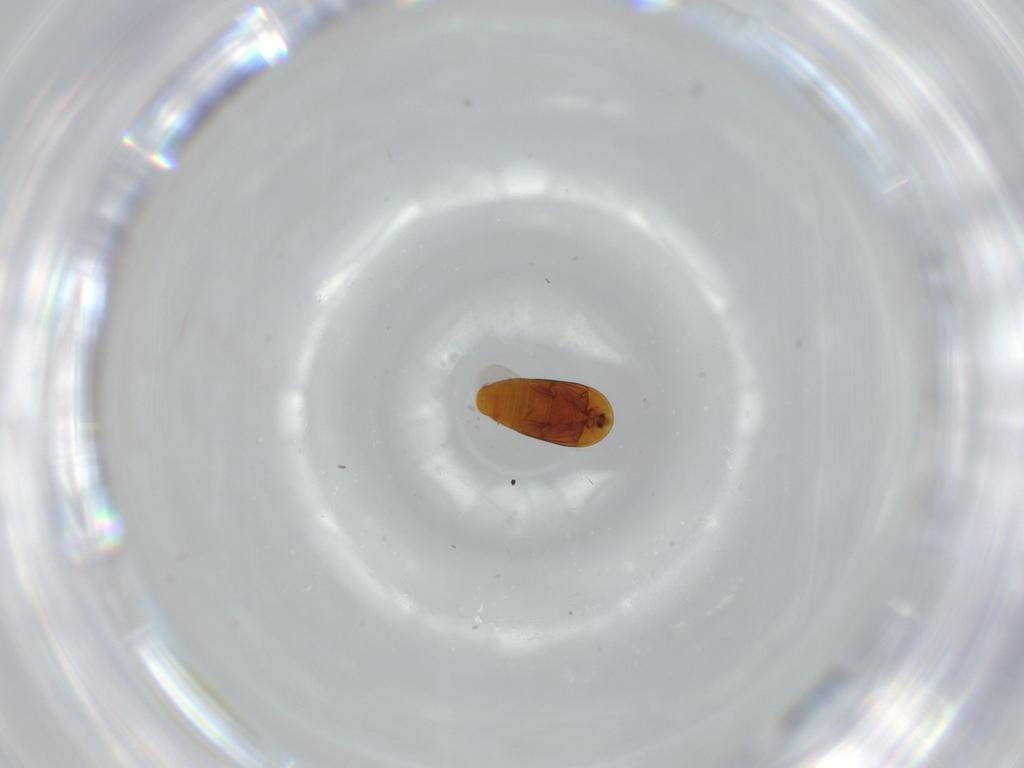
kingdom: Animalia
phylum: Arthropoda
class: Insecta
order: Coleoptera
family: Corylophidae
